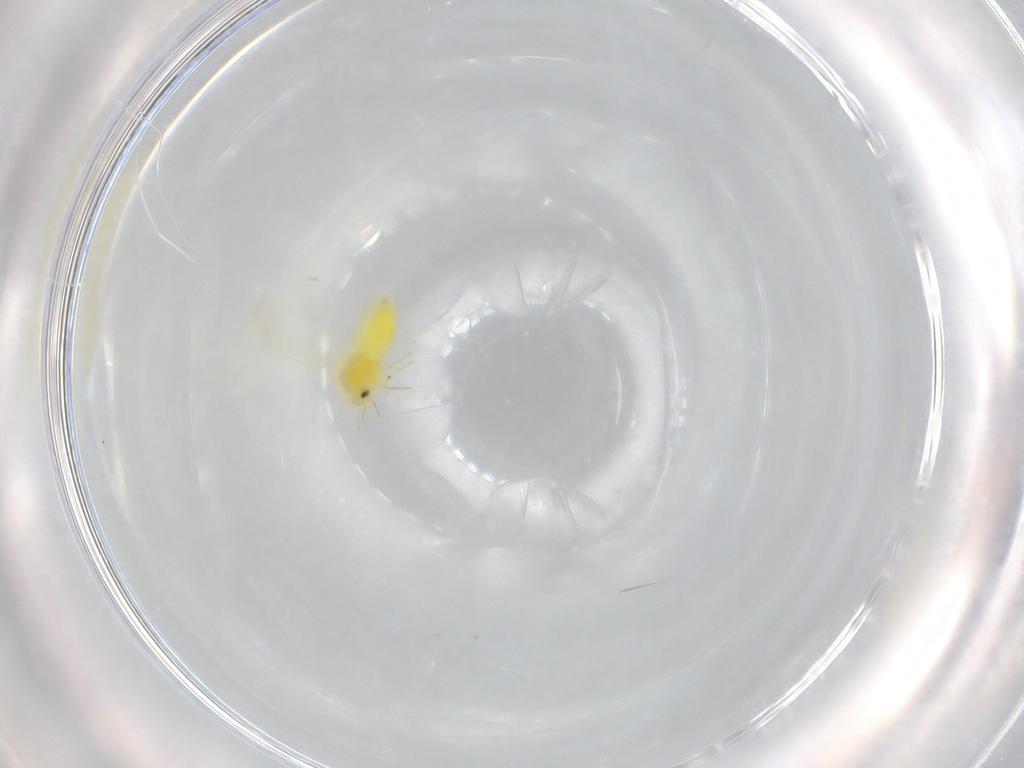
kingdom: Animalia
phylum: Arthropoda
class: Insecta
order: Hemiptera
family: Aleyrodidae
